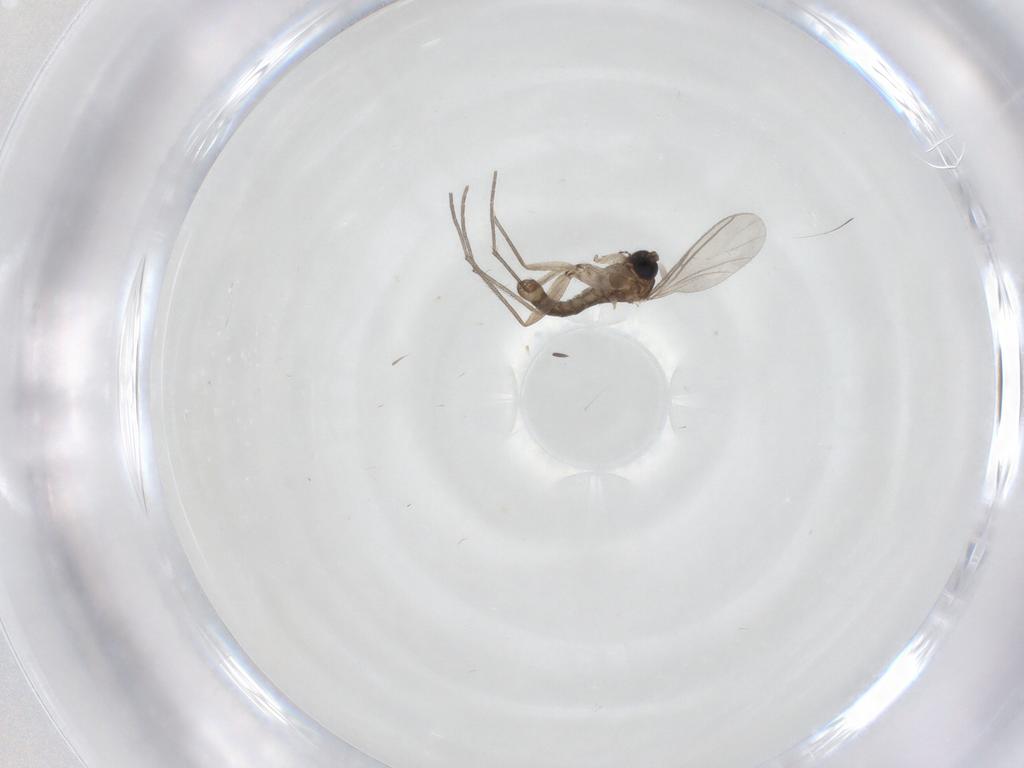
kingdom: Animalia
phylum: Arthropoda
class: Insecta
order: Diptera
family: Sciaridae
